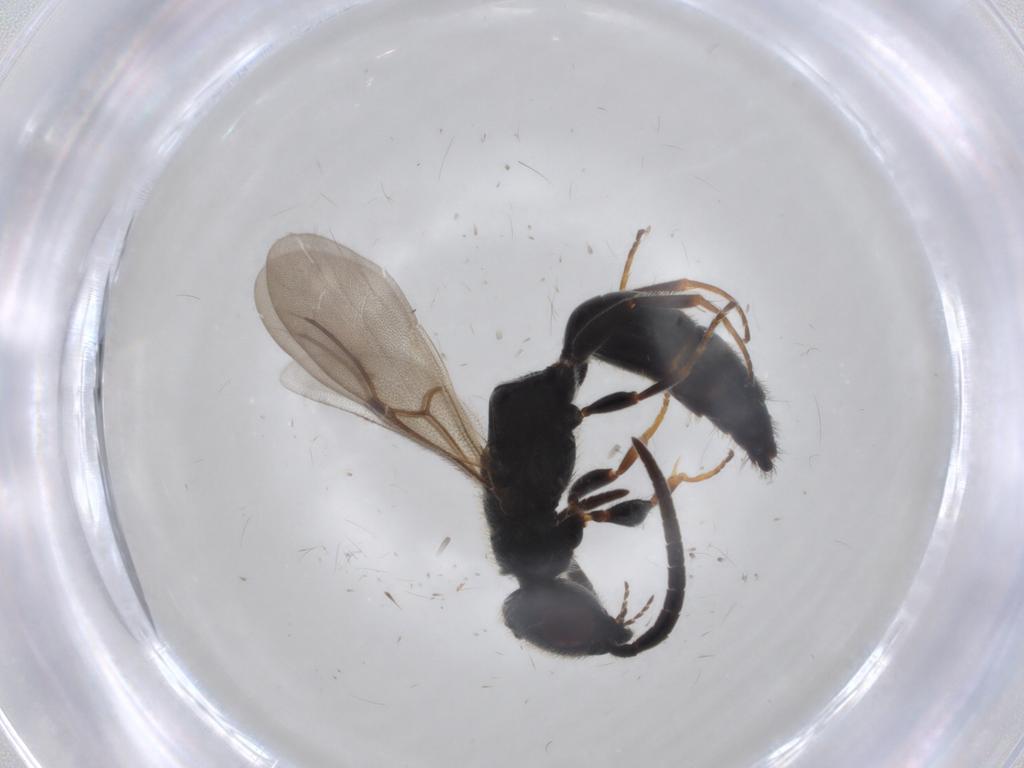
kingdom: Animalia
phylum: Arthropoda
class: Insecta
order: Hymenoptera
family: Bethylidae
